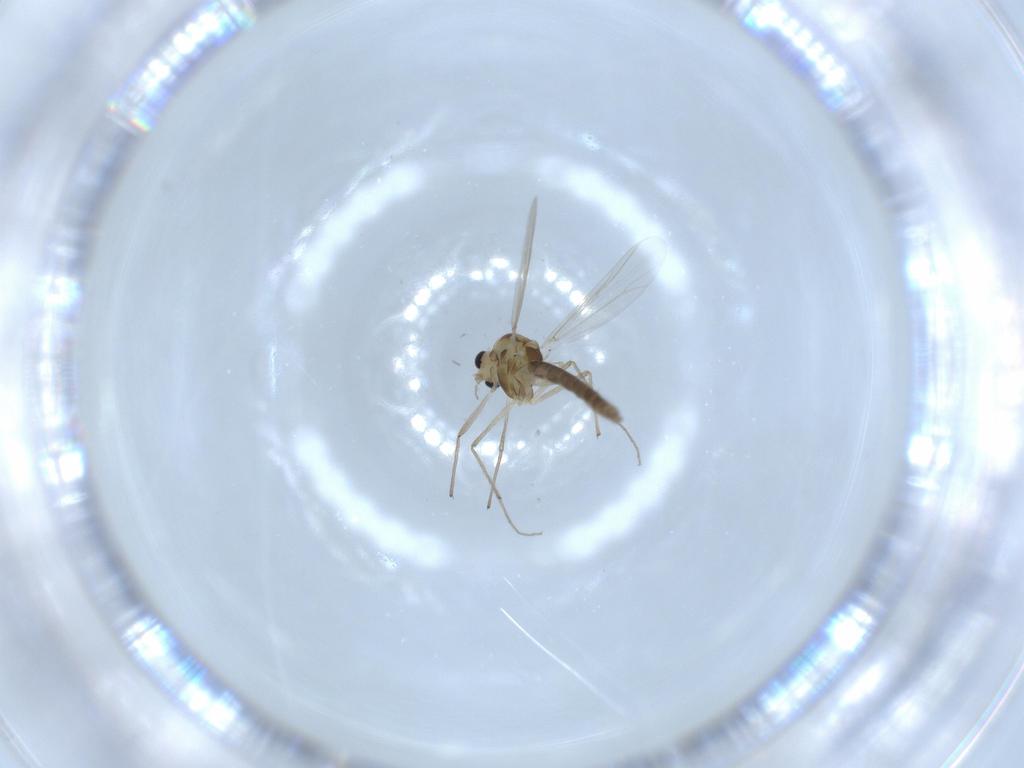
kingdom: Animalia
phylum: Arthropoda
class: Insecta
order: Diptera
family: Chironomidae
